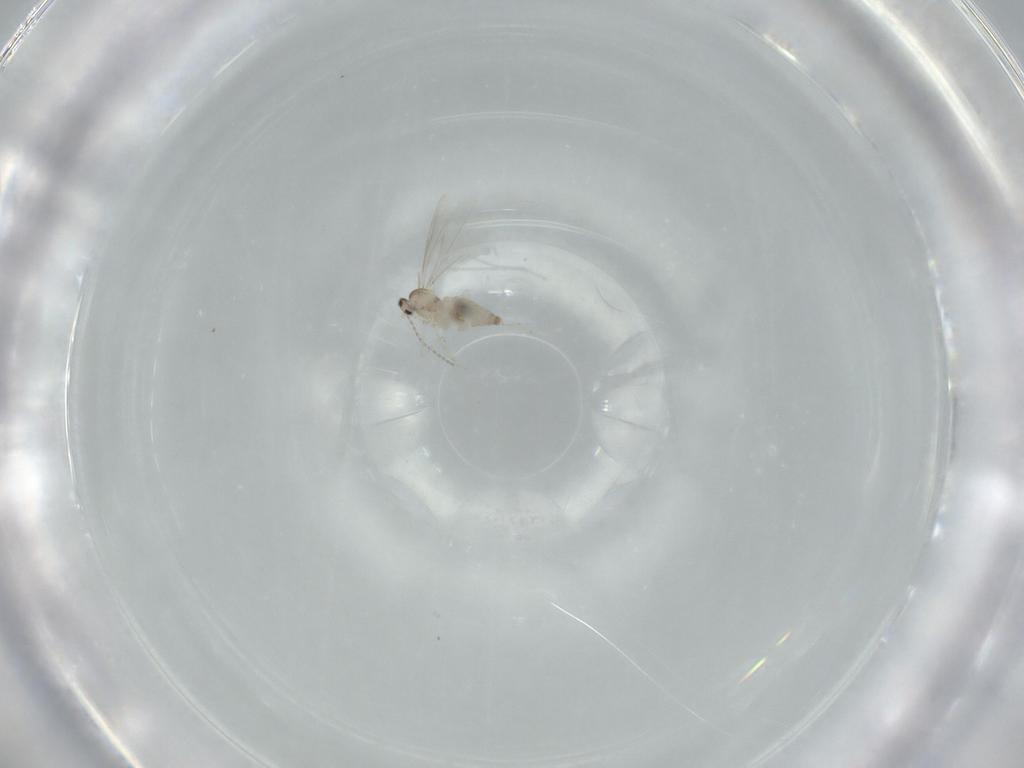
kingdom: Animalia
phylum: Arthropoda
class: Insecta
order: Diptera
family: Cecidomyiidae
